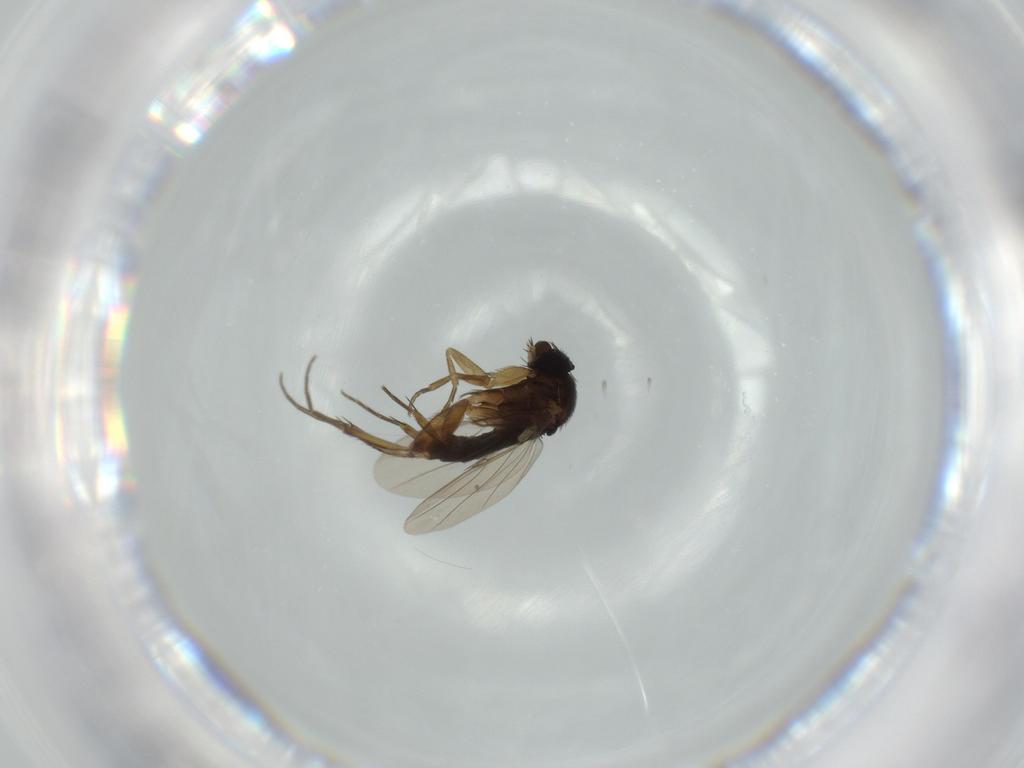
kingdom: Animalia
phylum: Arthropoda
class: Insecta
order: Diptera
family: Phoridae
